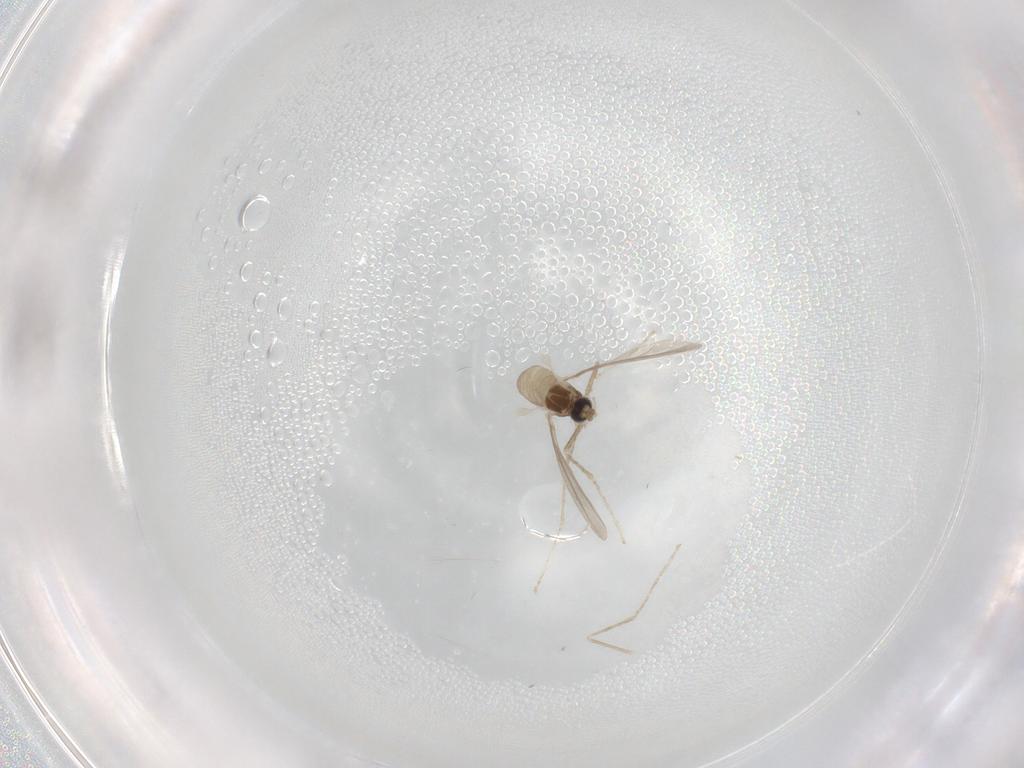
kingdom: Animalia
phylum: Arthropoda
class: Insecta
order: Diptera
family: Cecidomyiidae
